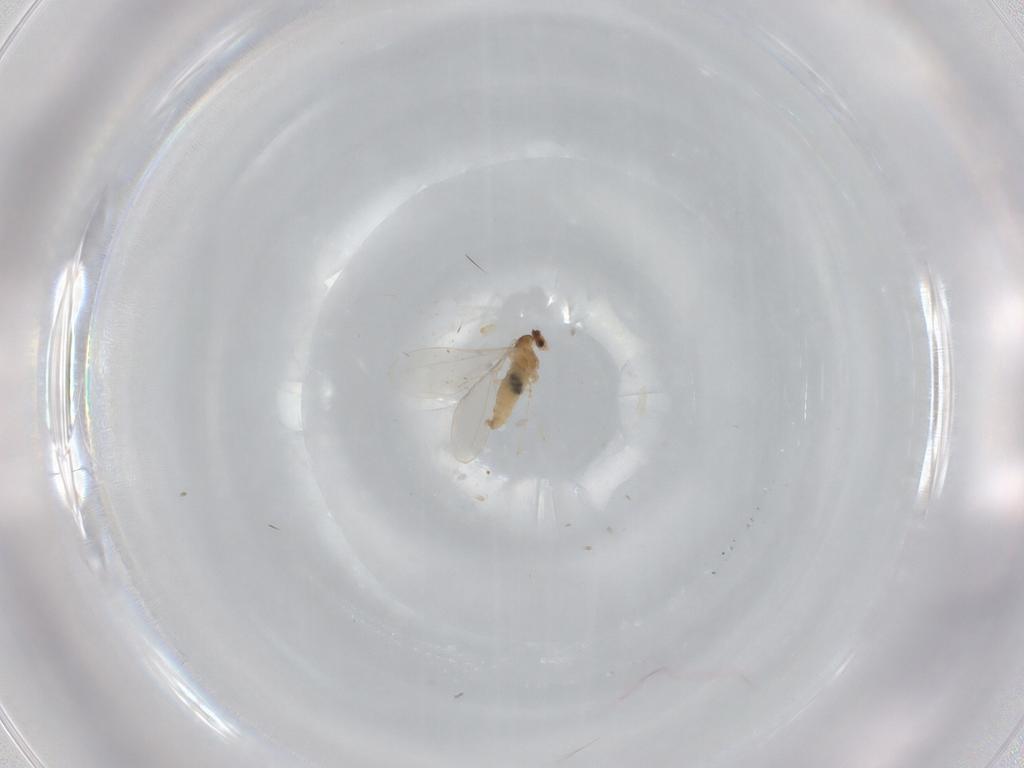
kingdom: Animalia
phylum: Arthropoda
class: Insecta
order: Diptera
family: Cecidomyiidae
